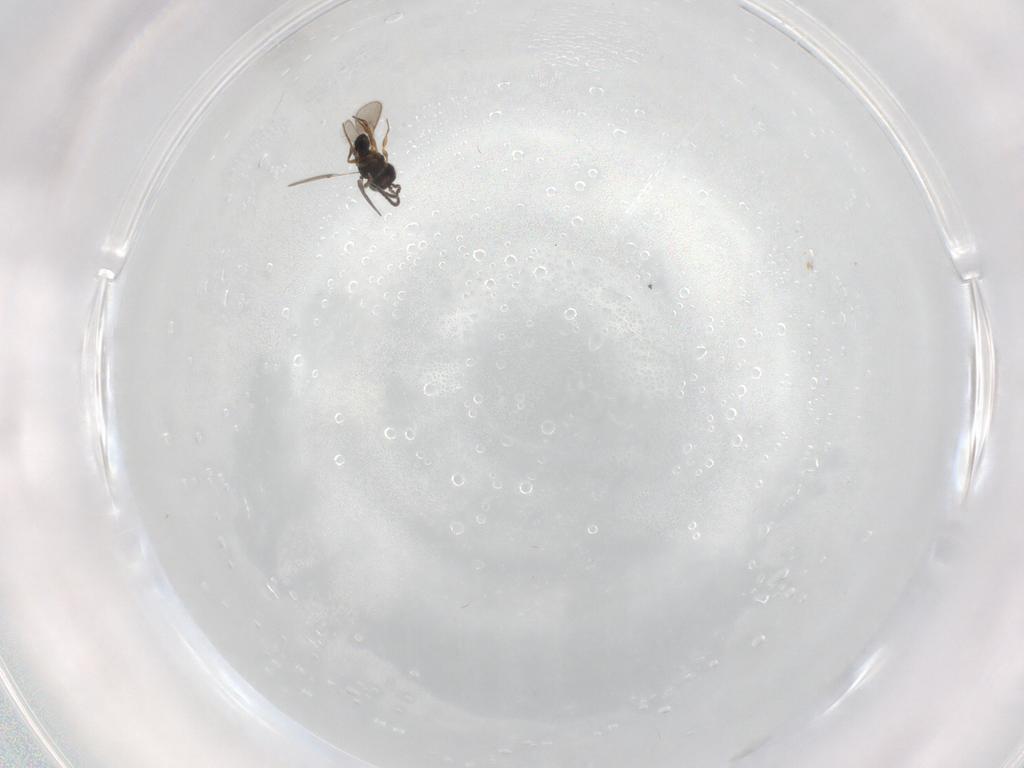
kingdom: Animalia
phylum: Arthropoda
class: Insecta
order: Hymenoptera
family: Scelionidae
